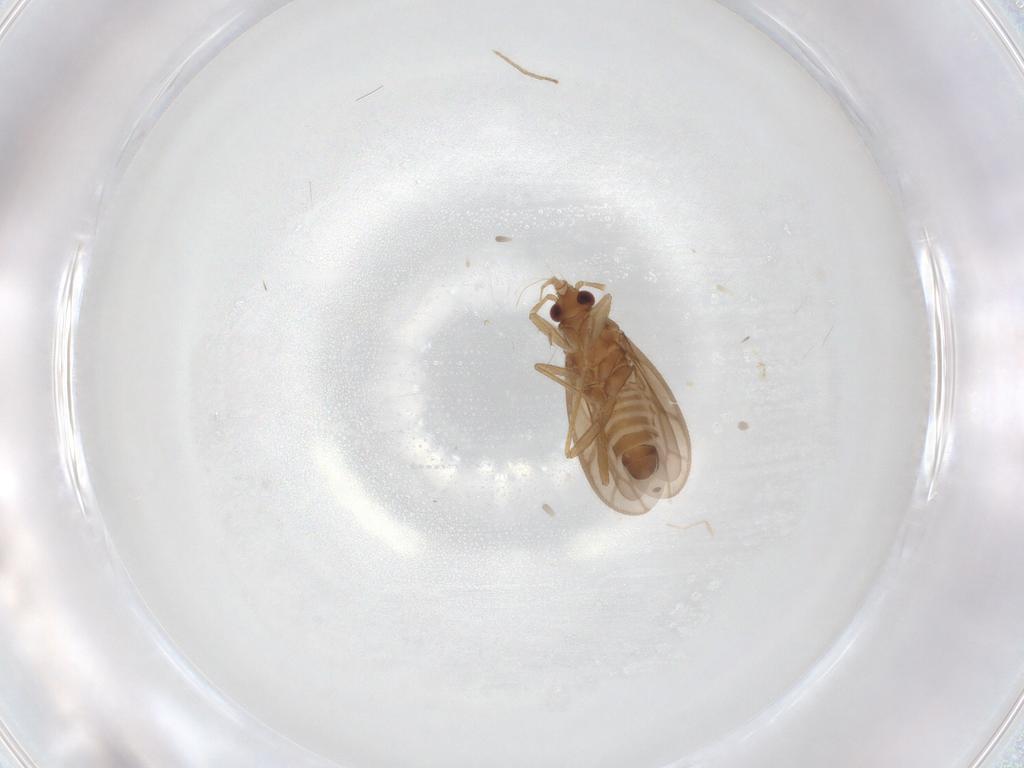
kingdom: Animalia
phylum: Arthropoda
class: Insecta
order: Hemiptera
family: Ceratocombidae
